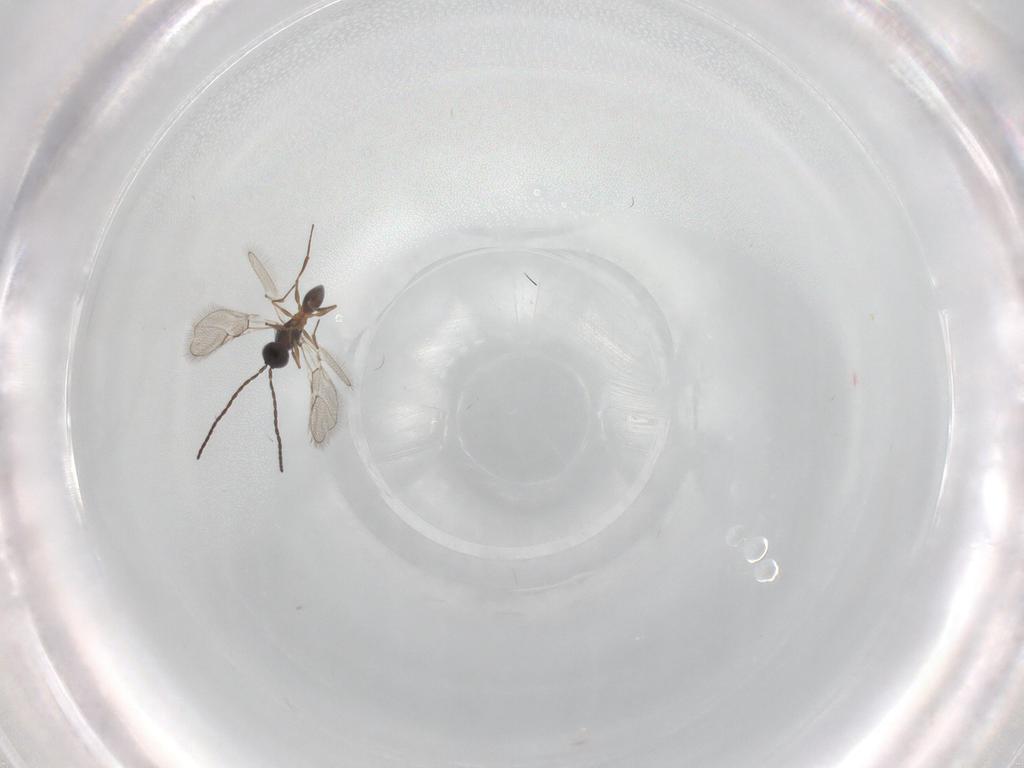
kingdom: Animalia
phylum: Arthropoda
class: Insecta
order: Hymenoptera
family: Figitidae
